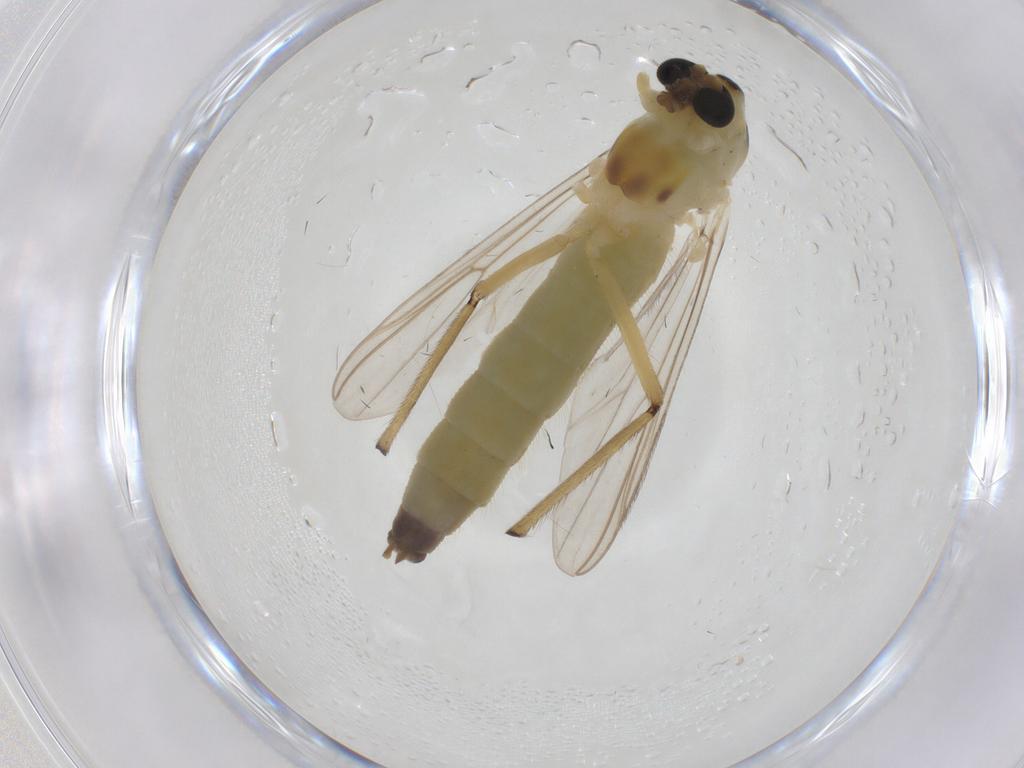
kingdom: Animalia
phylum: Arthropoda
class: Insecta
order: Diptera
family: Chironomidae
